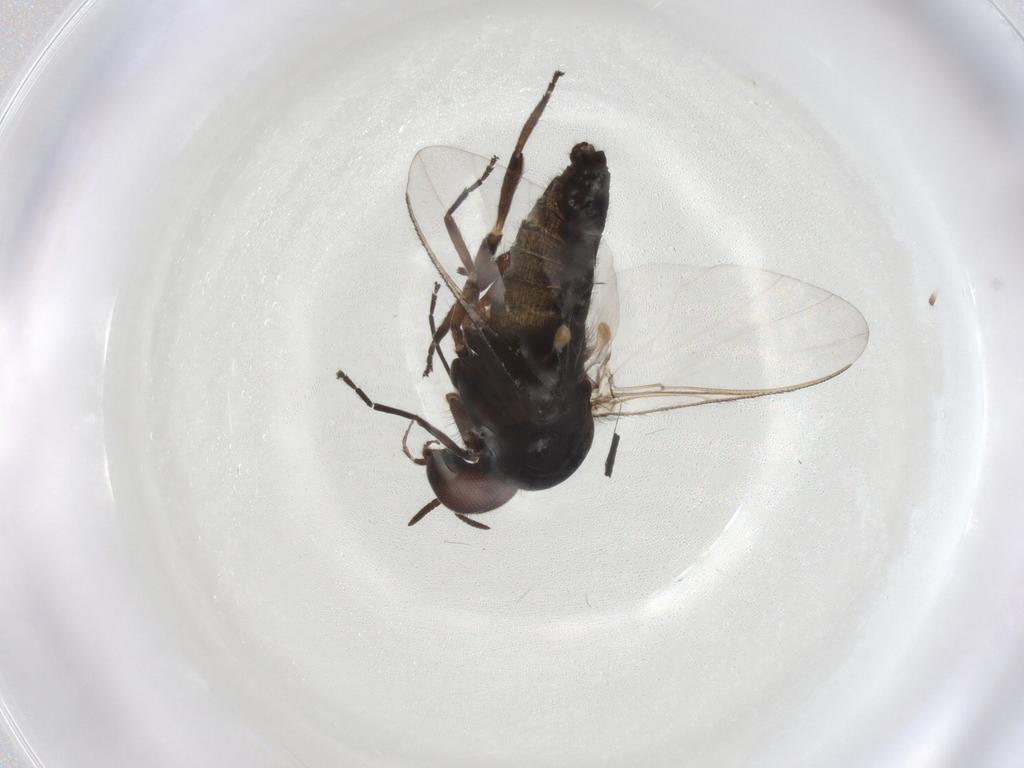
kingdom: Animalia
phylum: Arthropoda
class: Insecta
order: Diptera
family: Simuliidae
